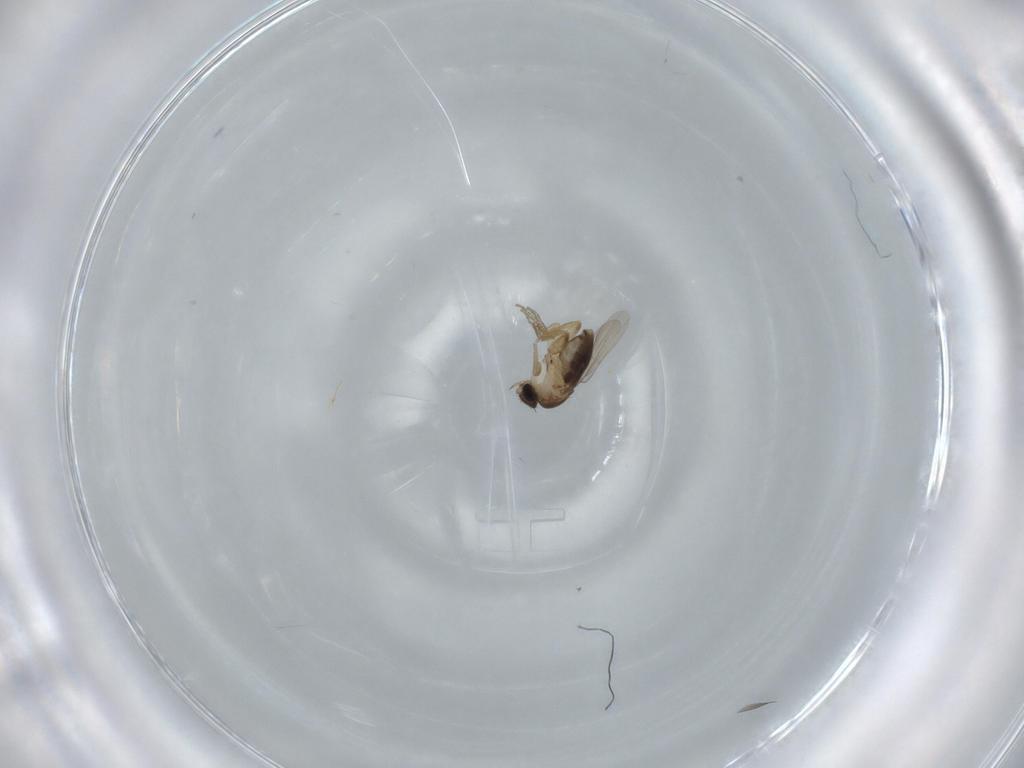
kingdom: Animalia
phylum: Arthropoda
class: Insecta
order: Diptera
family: Phoridae
